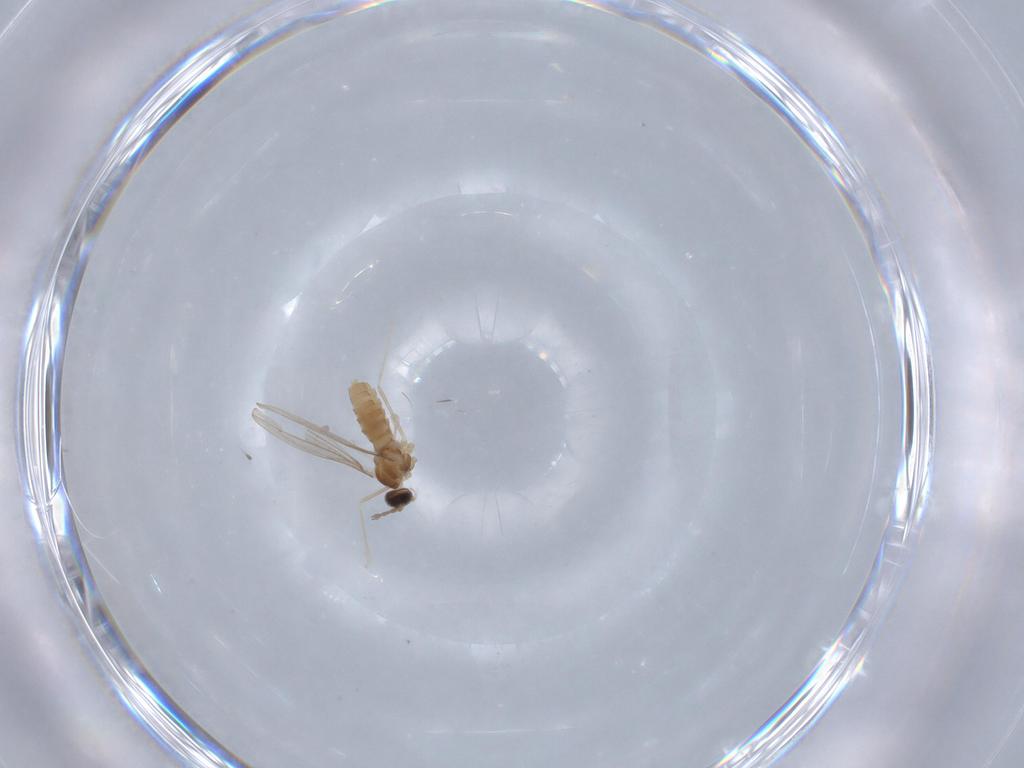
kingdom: Animalia
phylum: Arthropoda
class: Insecta
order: Diptera
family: Cecidomyiidae
